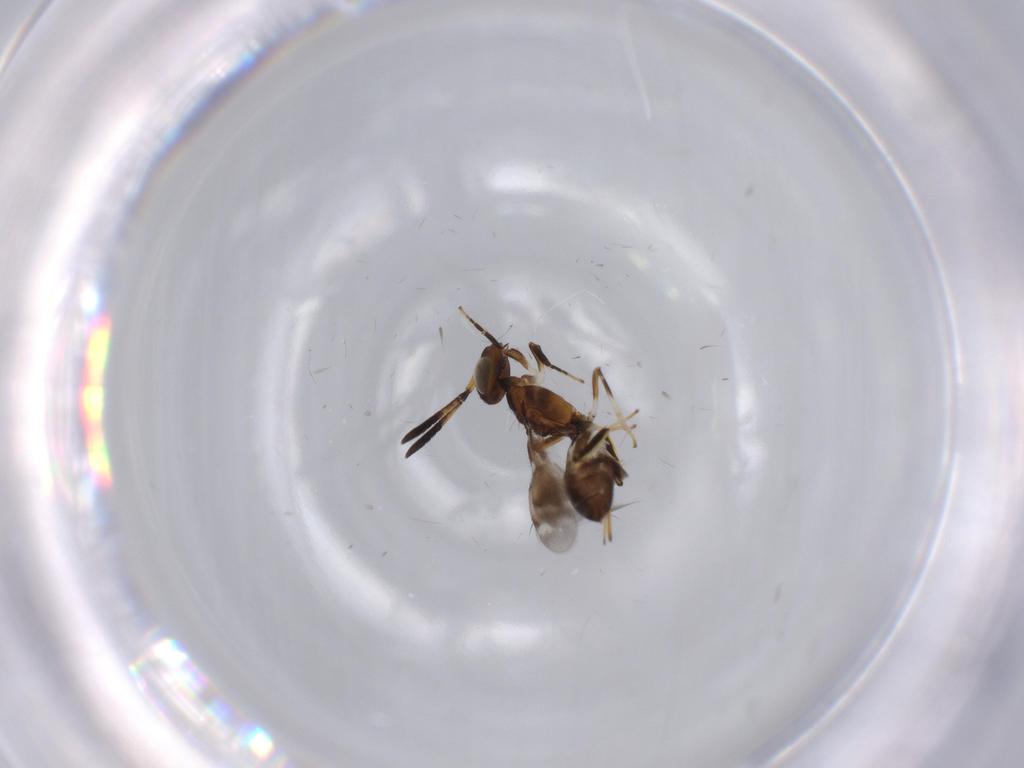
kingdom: Animalia
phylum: Arthropoda
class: Insecta
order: Hymenoptera
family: Eupelmidae
